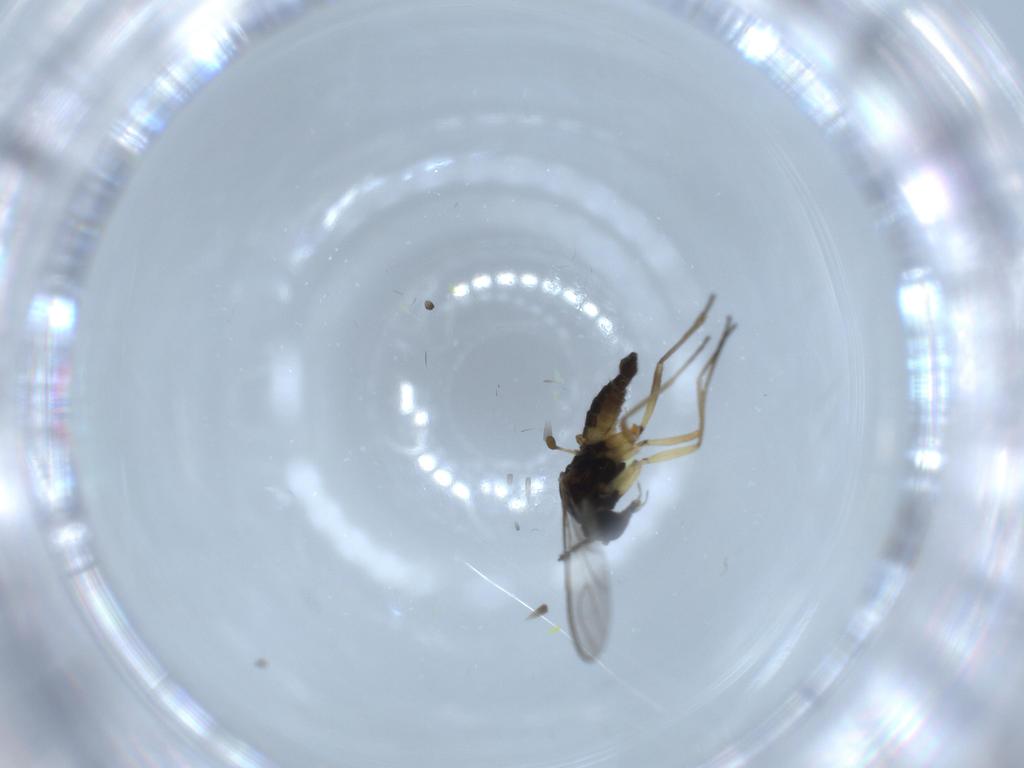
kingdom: Animalia
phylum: Arthropoda
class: Insecta
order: Diptera
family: Sciaridae
